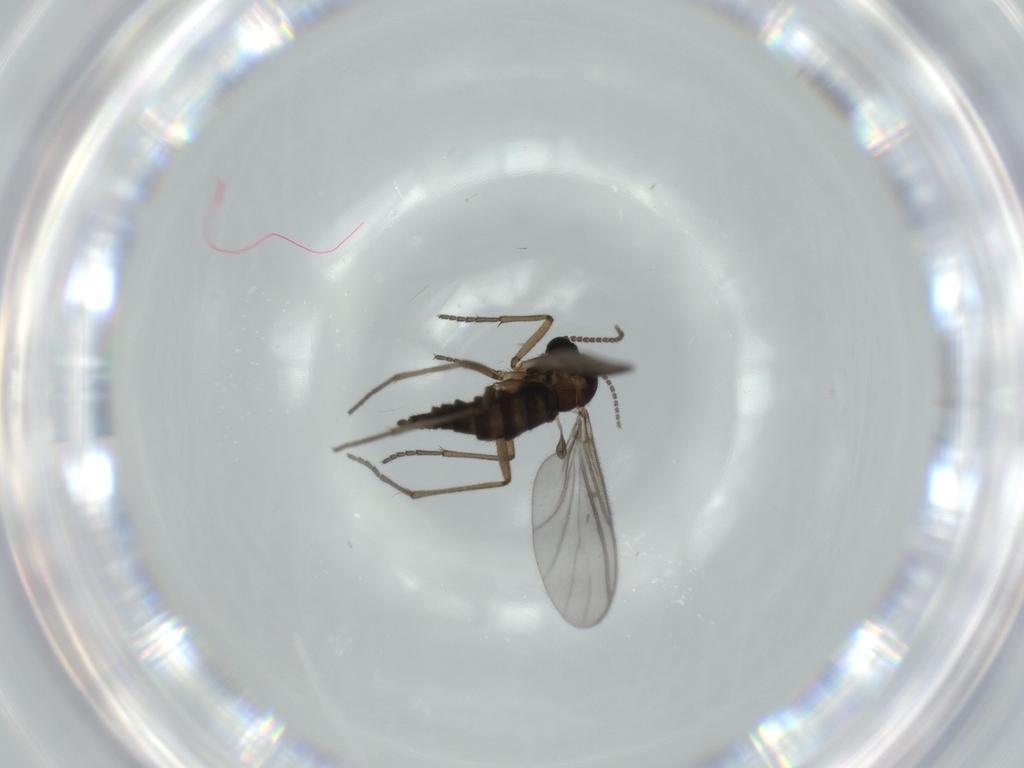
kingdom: Animalia
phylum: Arthropoda
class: Insecta
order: Diptera
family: Sciaridae
